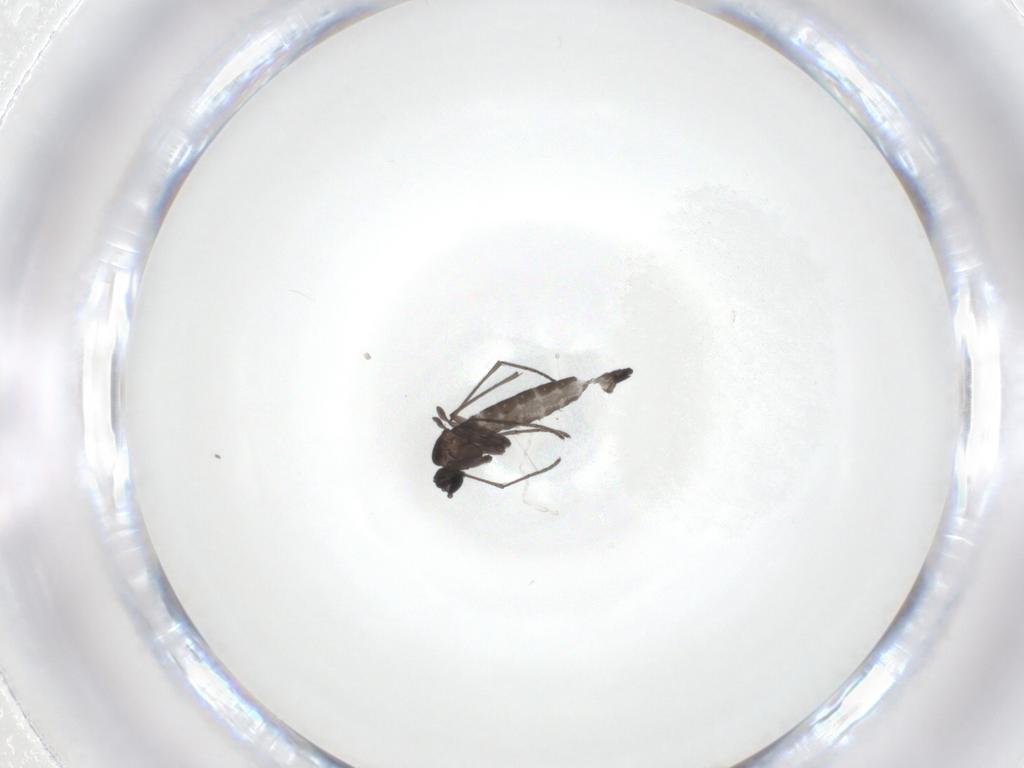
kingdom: Animalia
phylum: Arthropoda
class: Insecta
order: Diptera
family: Sciaridae
